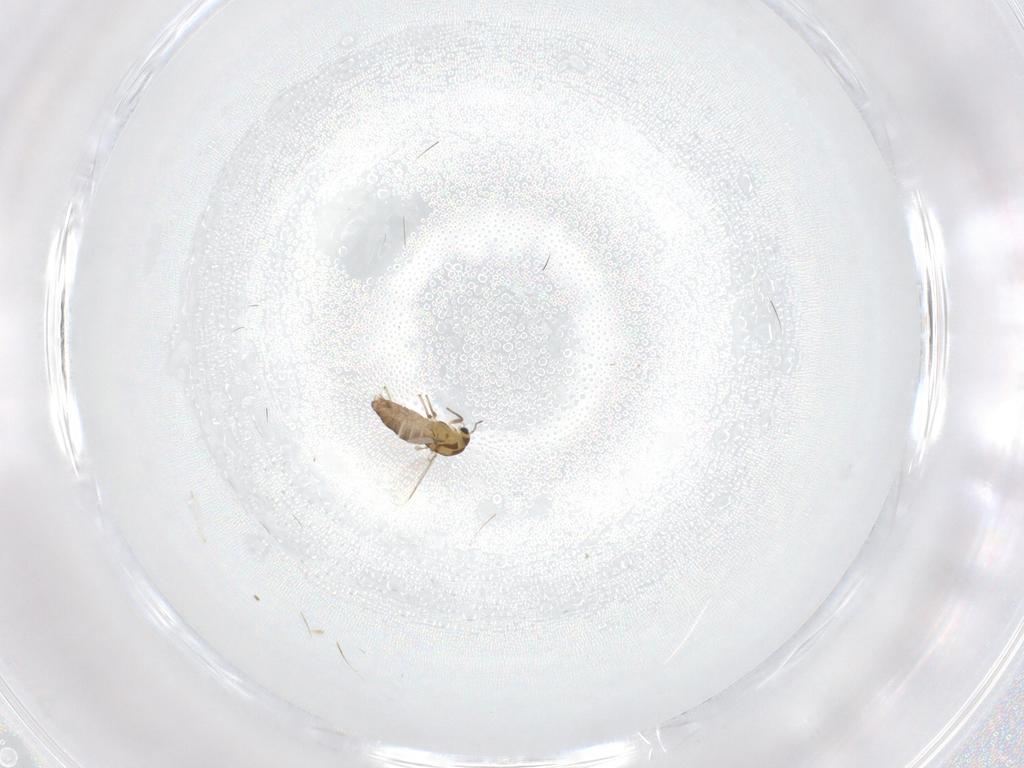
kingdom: Animalia
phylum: Arthropoda
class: Insecta
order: Diptera
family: Chironomidae
